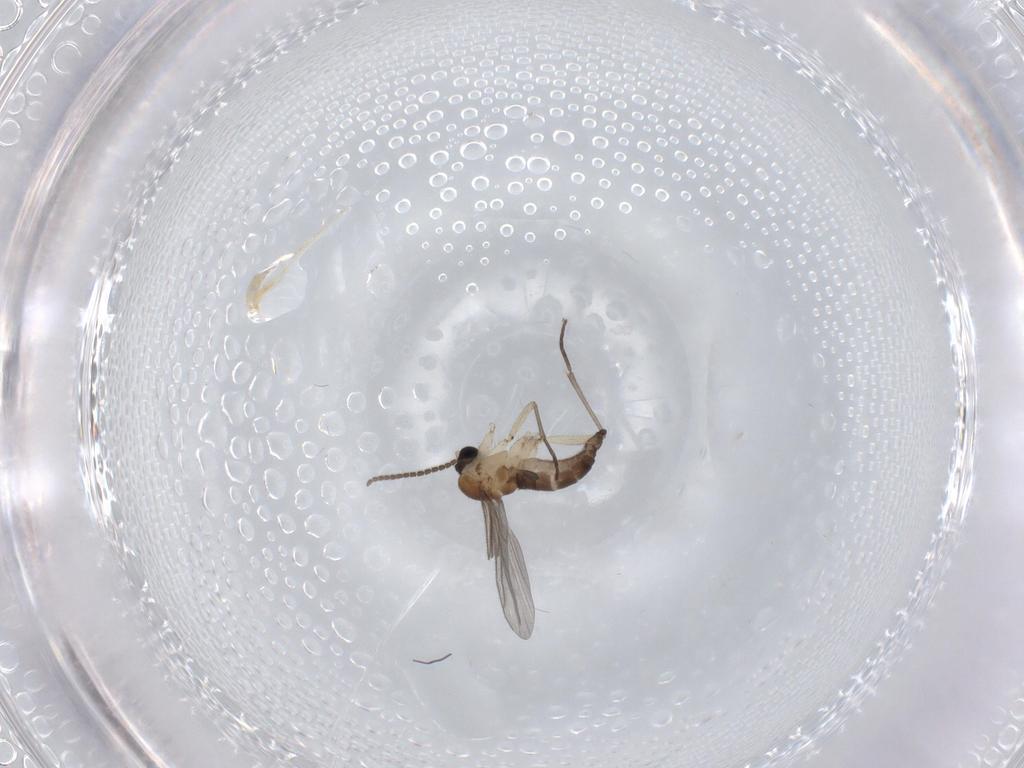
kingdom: Animalia
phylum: Arthropoda
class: Insecta
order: Diptera
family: Sciaridae
